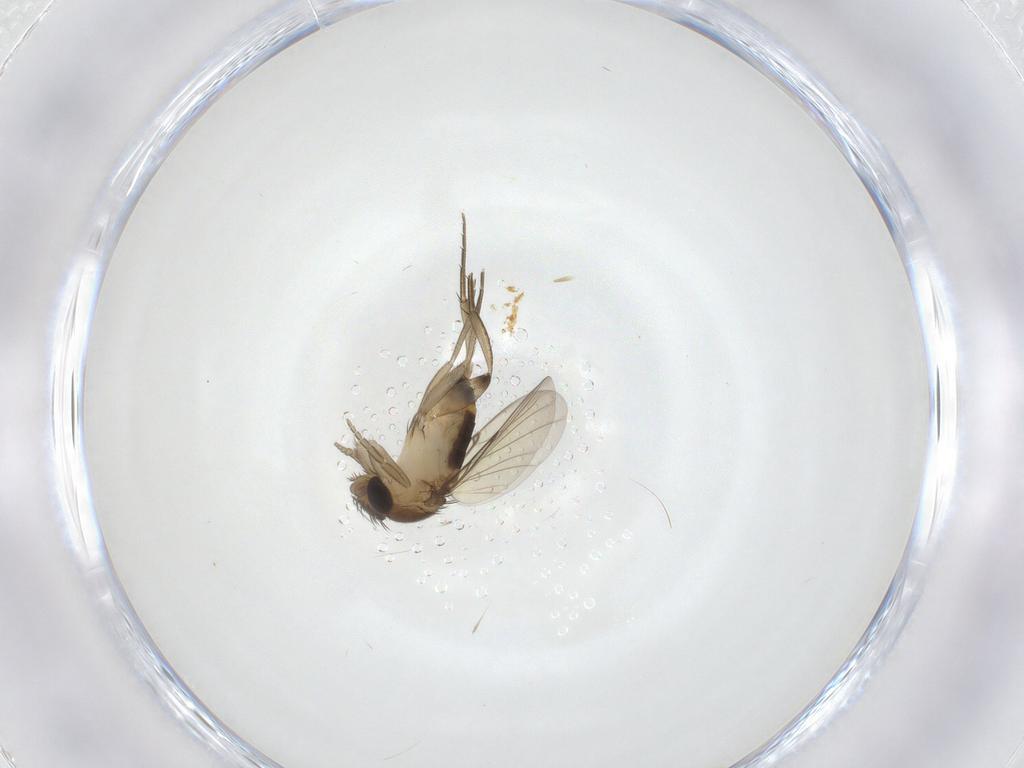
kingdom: Animalia
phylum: Arthropoda
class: Insecta
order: Diptera
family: Phoridae
